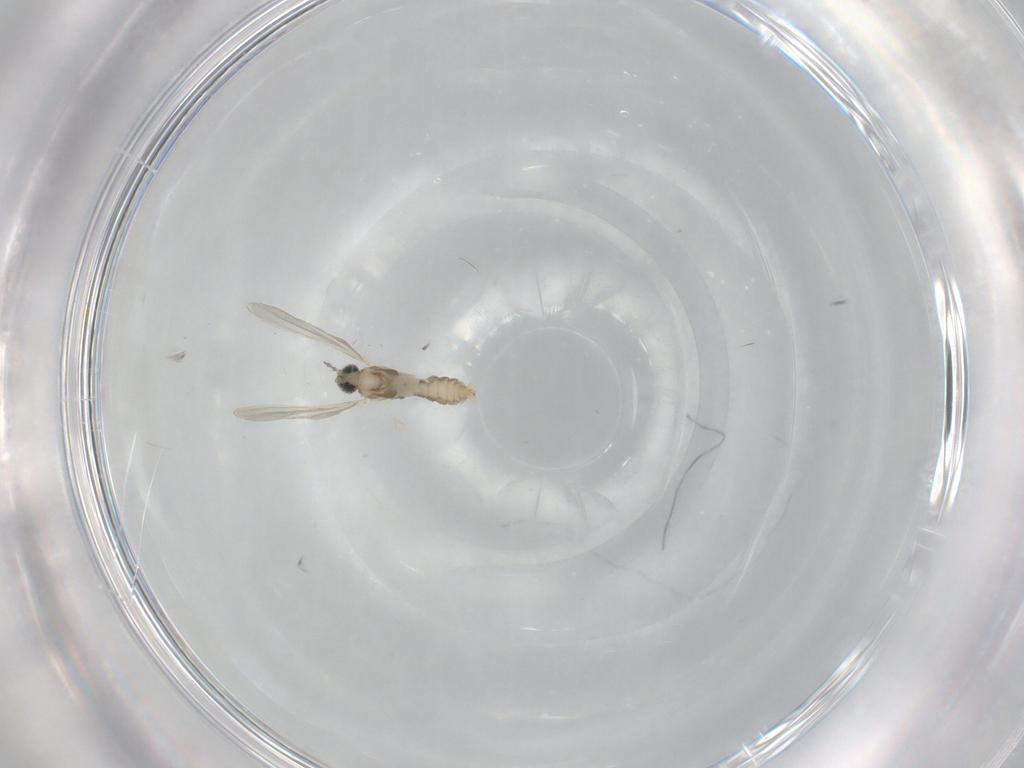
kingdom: Animalia
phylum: Arthropoda
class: Insecta
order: Diptera
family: Cecidomyiidae
